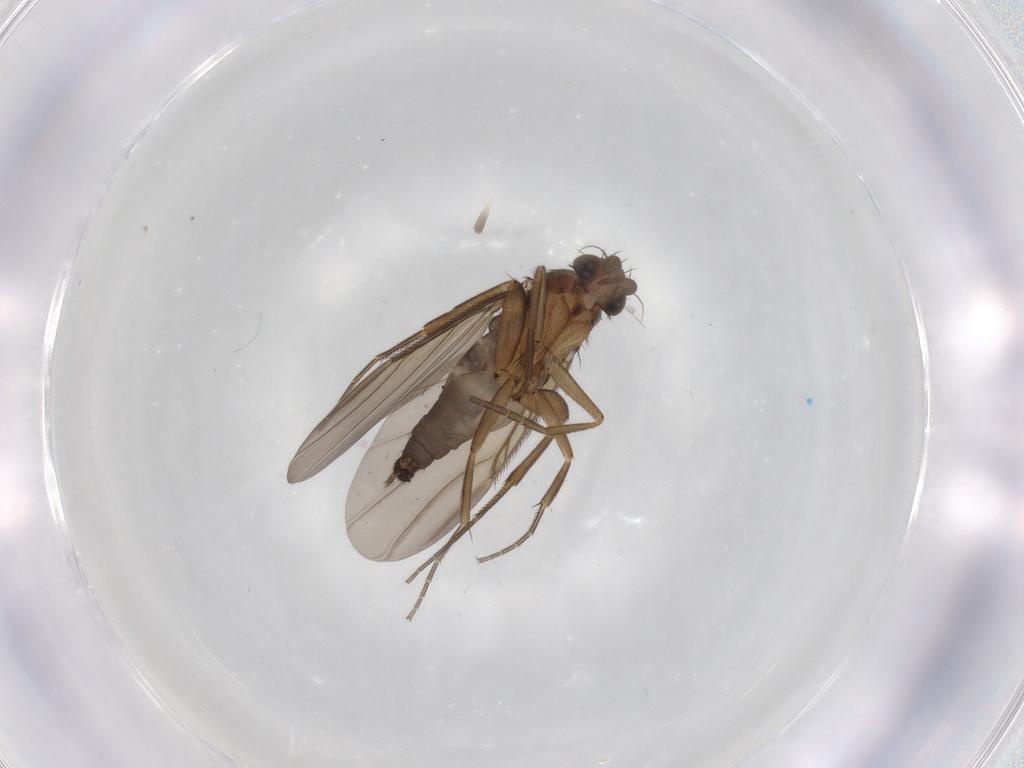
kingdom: Animalia
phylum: Arthropoda
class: Insecta
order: Diptera
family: Phoridae
